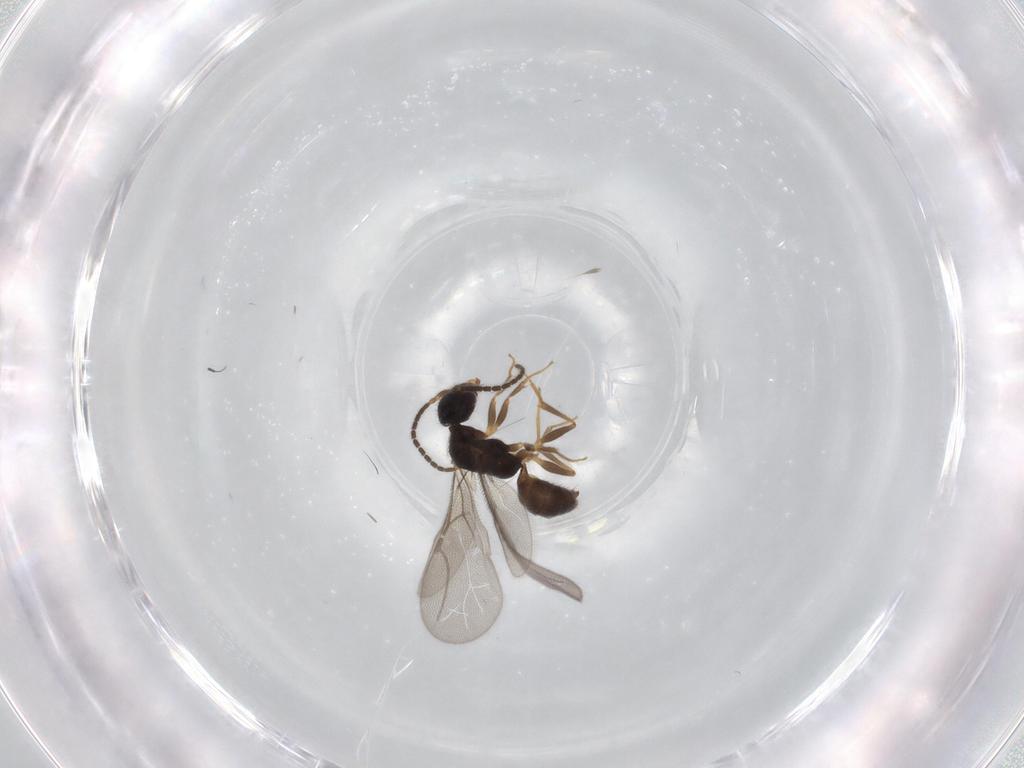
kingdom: Animalia
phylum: Arthropoda
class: Insecta
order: Hymenoptera
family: Bethylidae
